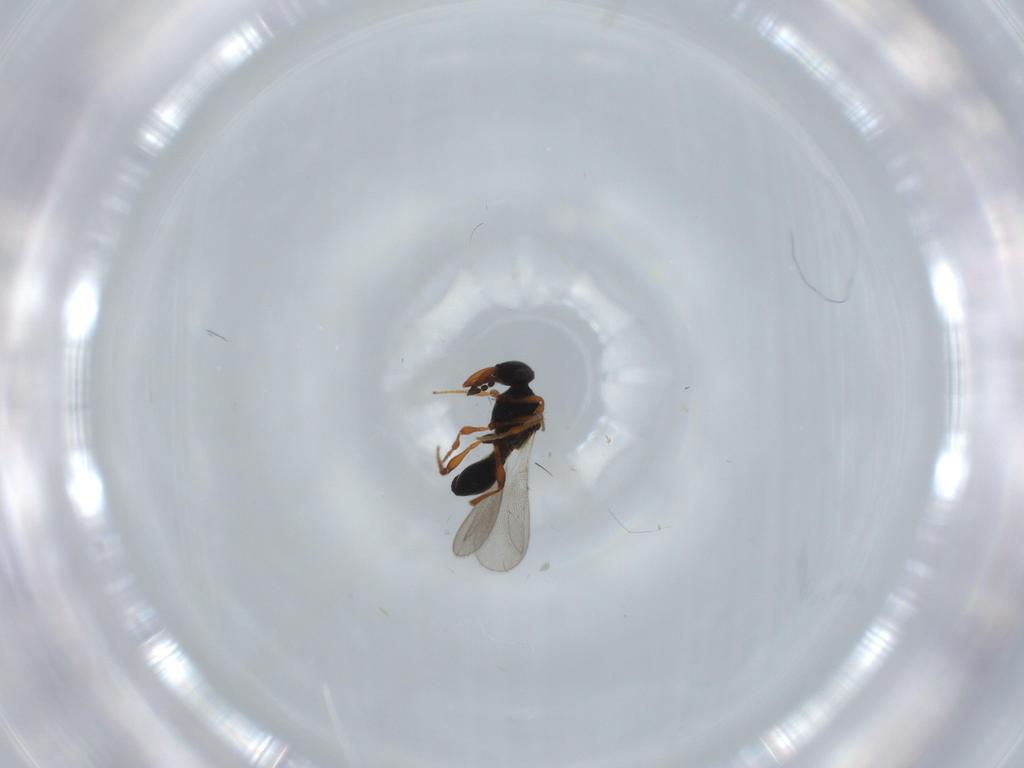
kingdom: Animalia
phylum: Arthropoda
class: Insecta
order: Hymenoptera
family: Platygastridae
